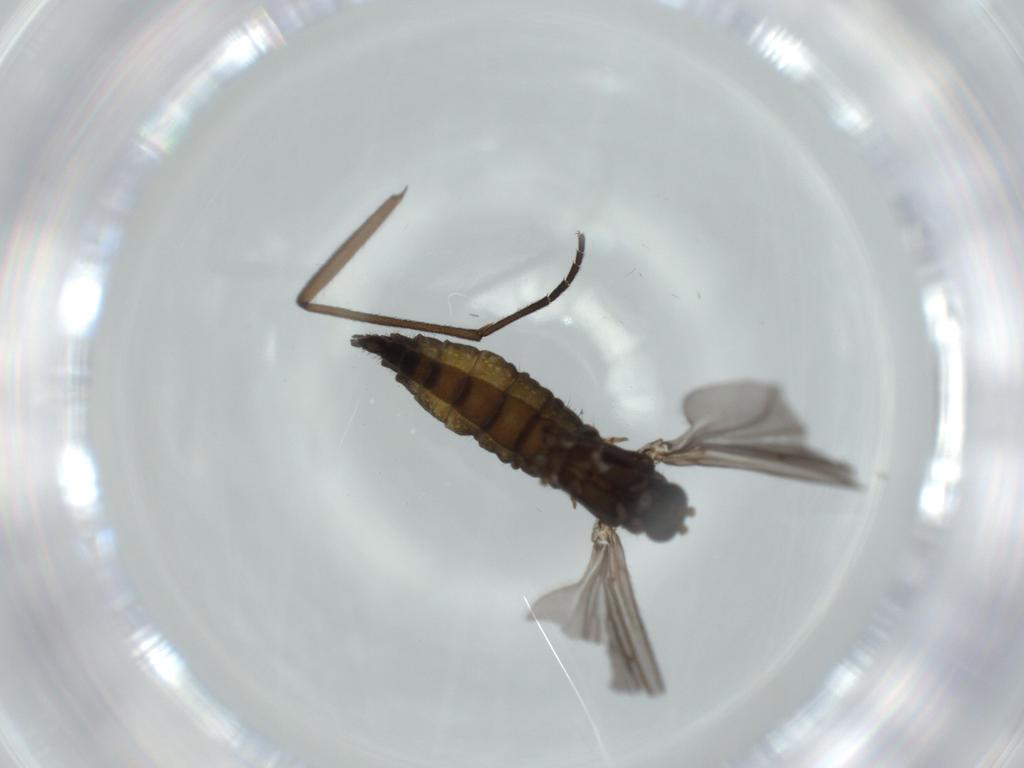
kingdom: Animalia
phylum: Arthropoda
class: Insecta
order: Diptera
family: Sciaridae
